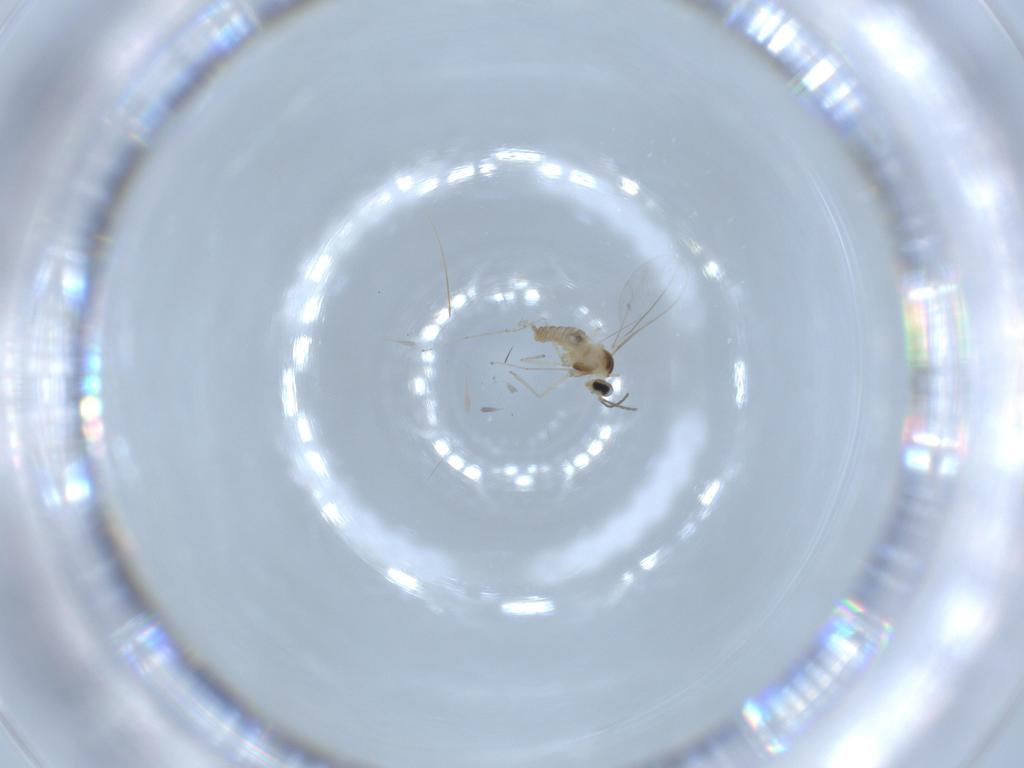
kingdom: Animalia
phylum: Arthropoda
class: Insecta
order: Diptera
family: Cecidomyiidae
